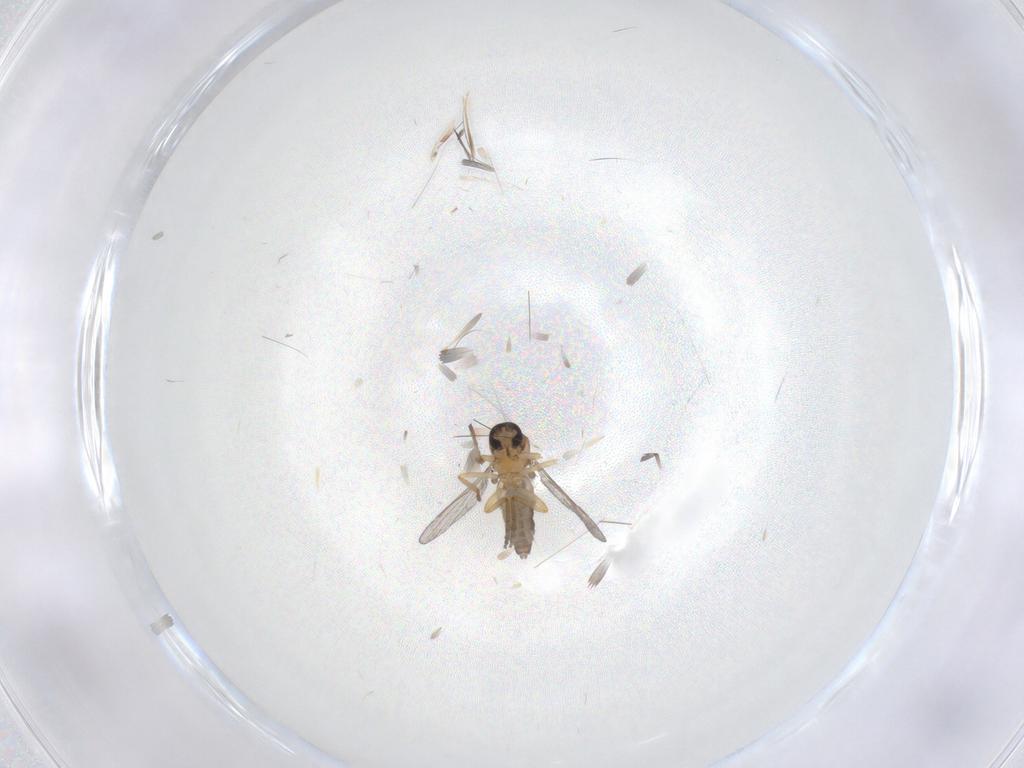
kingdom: Animalia
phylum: Arthropoda
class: Insecta
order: Diptera
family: Ceratopogonidae
